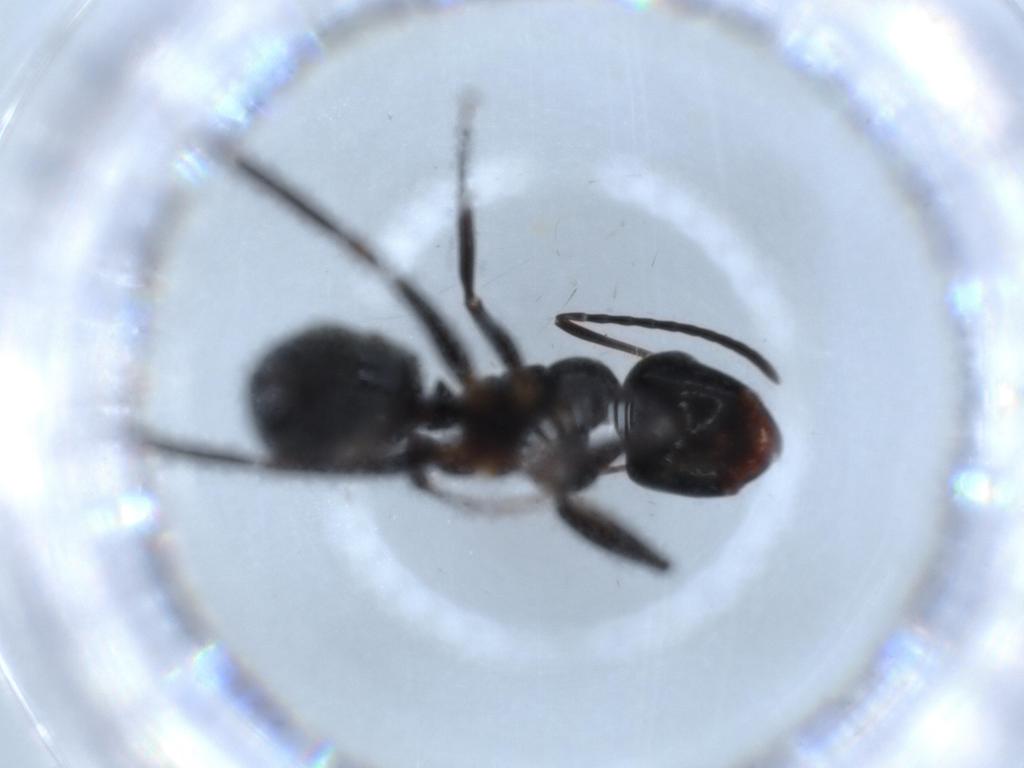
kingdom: Animalia
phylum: Arthropoda
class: Insecta
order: Hymenoptera
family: Formicidae
